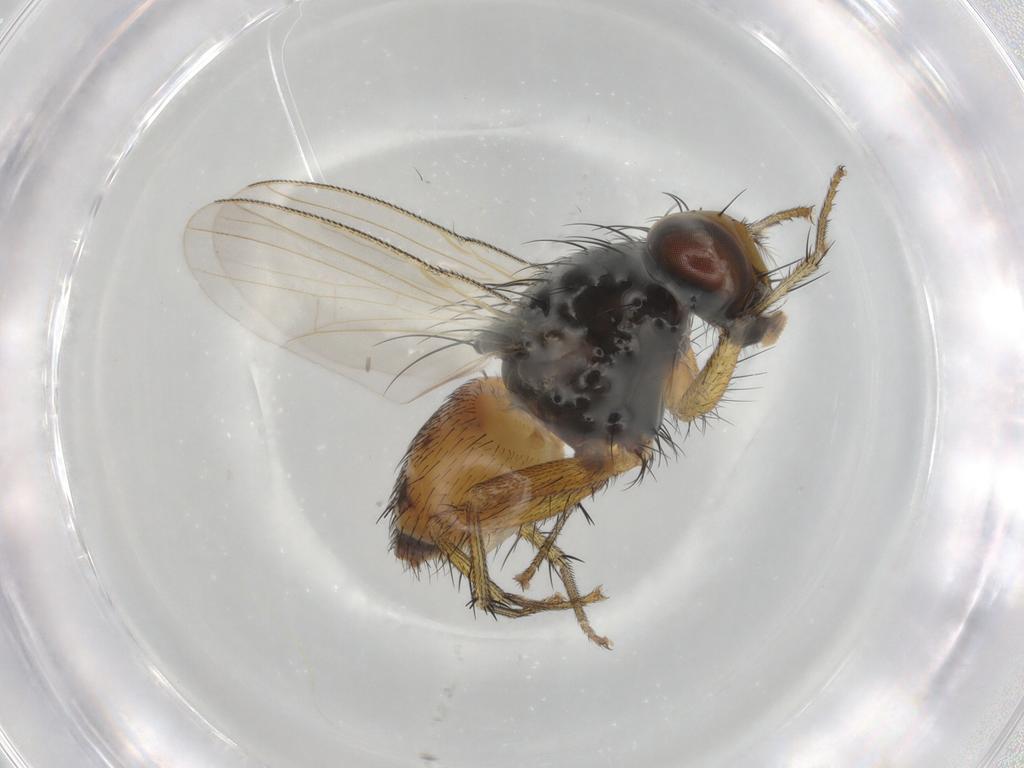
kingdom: Animalia
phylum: Arthropoda
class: Insecta
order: Diptera
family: Muscidae
